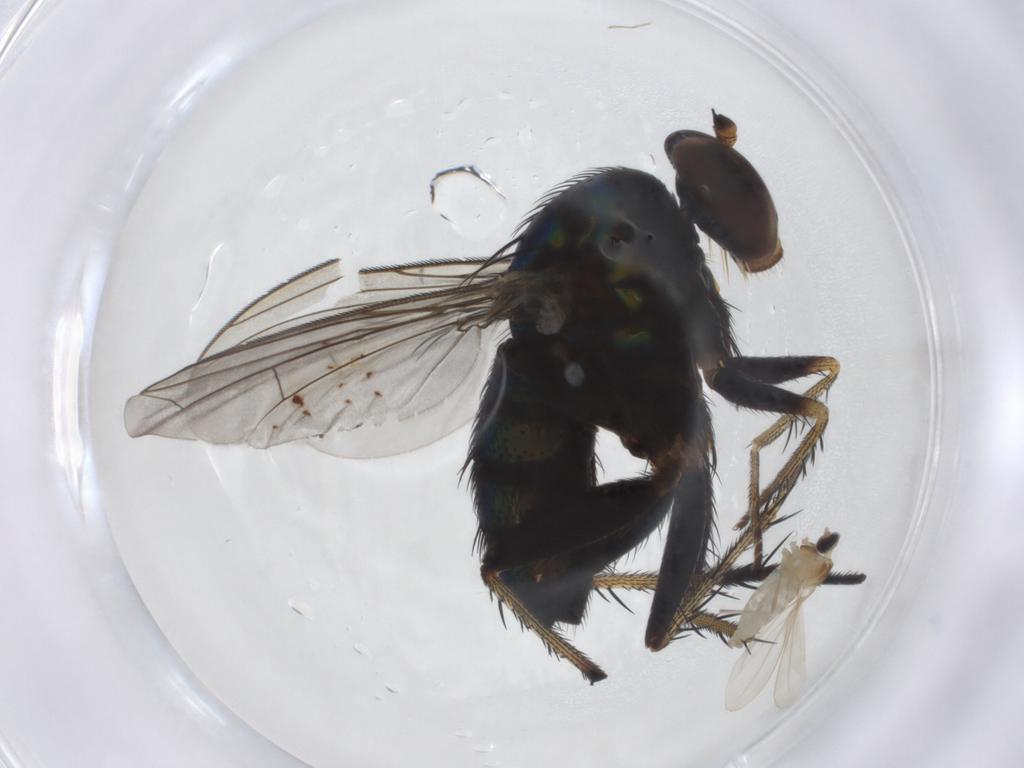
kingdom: Animalia
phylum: Arthropoda
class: Insecta
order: Diptera
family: Dolichopodidae
